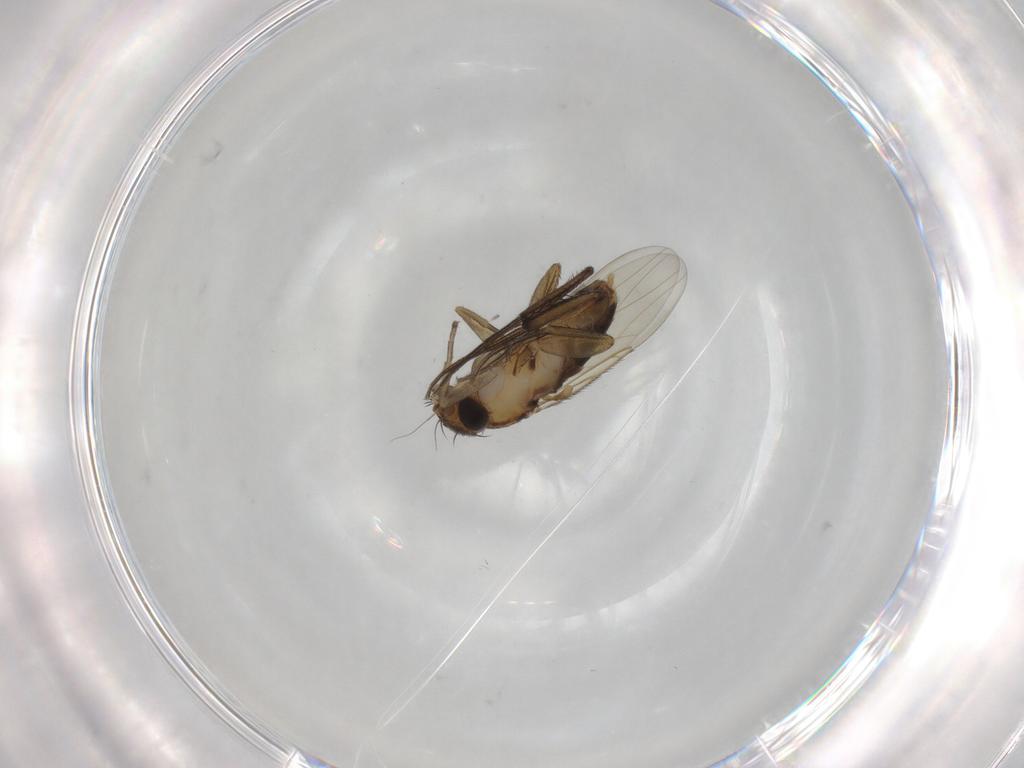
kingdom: Animalia
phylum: Arthropoda
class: Insecta
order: Diptera
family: Phoridae
